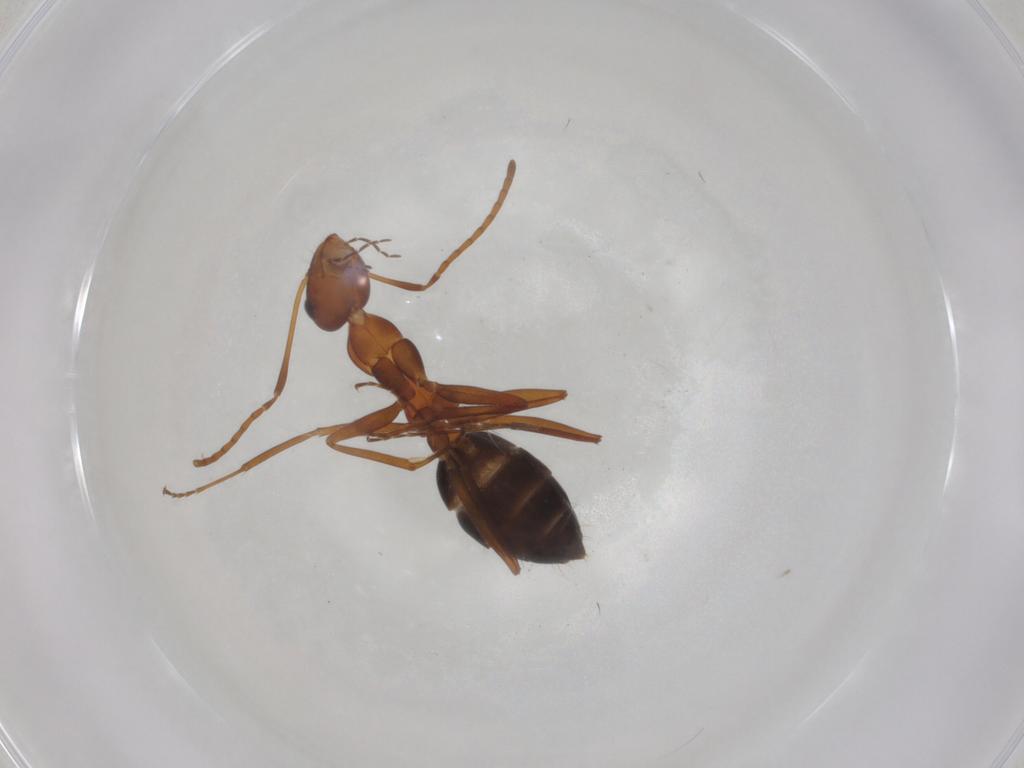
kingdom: Animalia
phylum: Arthropoda
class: Insecta
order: Hymenoptera
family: Formicidae
